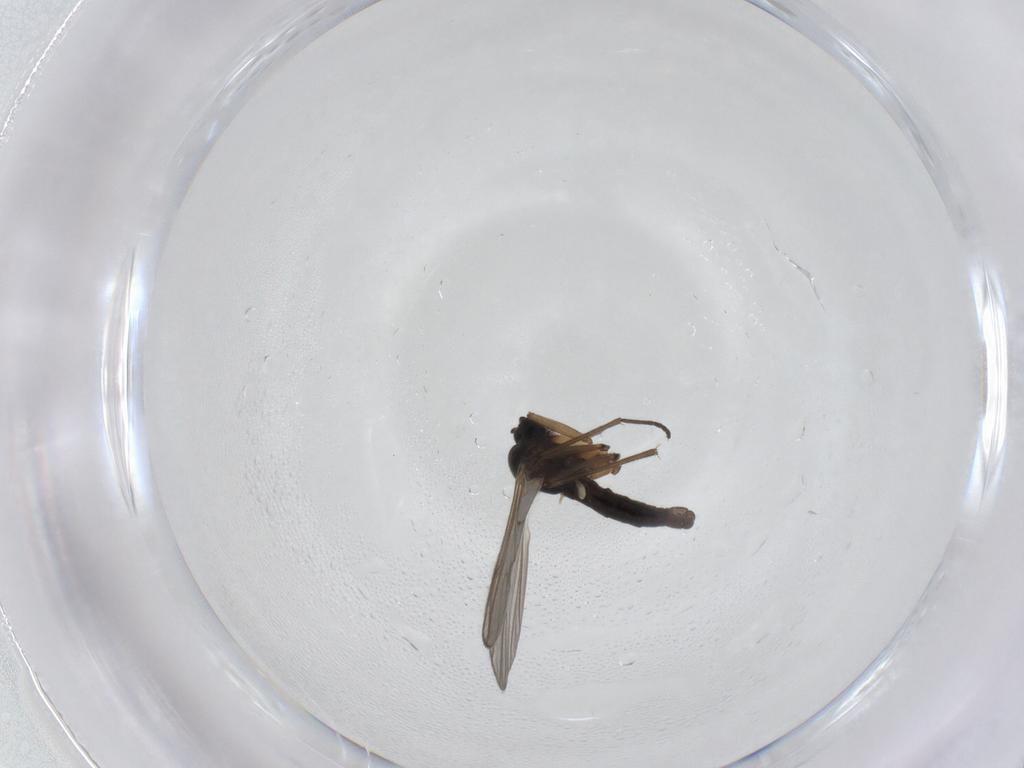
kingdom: Animalia
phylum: Arthropoda
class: Insecta
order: Diptera
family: Sciaridae
